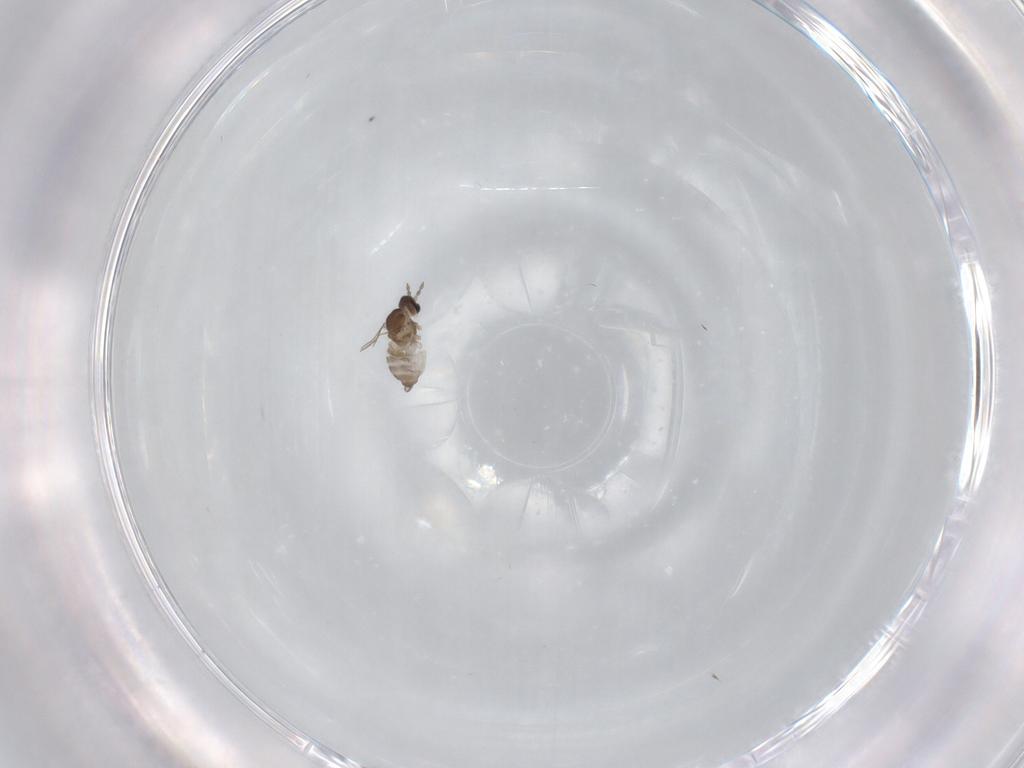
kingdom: Animalia
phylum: Arthropoda
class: Insecta
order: Diptera
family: Cecidomyiidae
